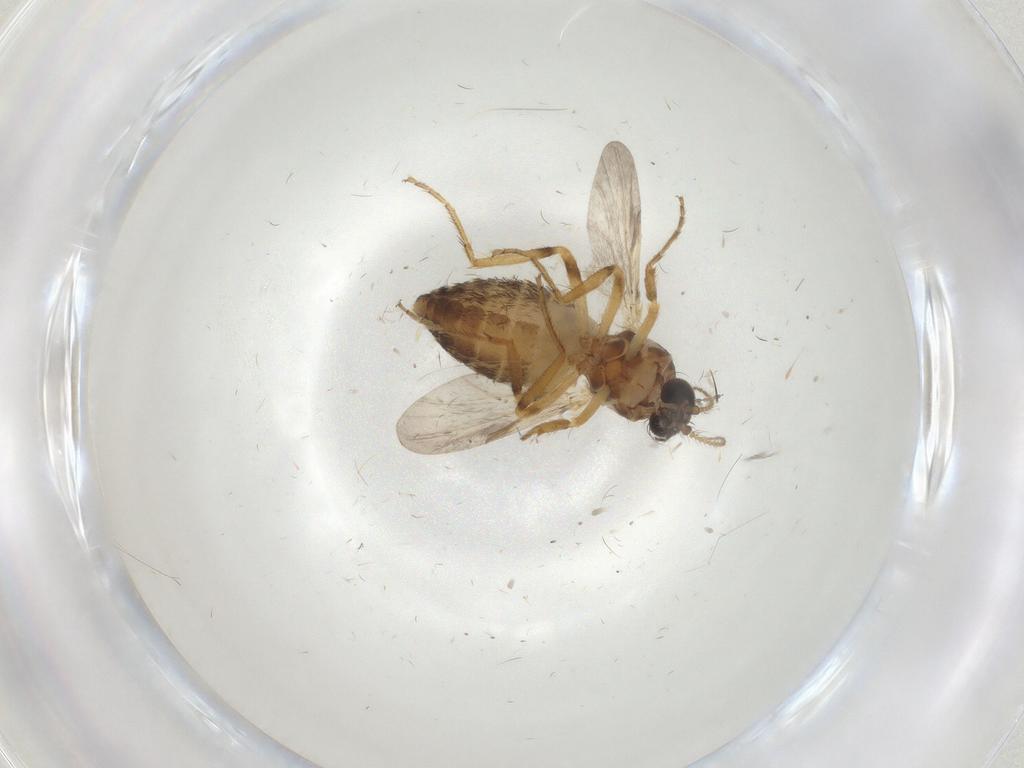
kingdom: Animalia
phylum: Arthropoda
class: Insecta
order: Diptera
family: Ceratopogonidae
